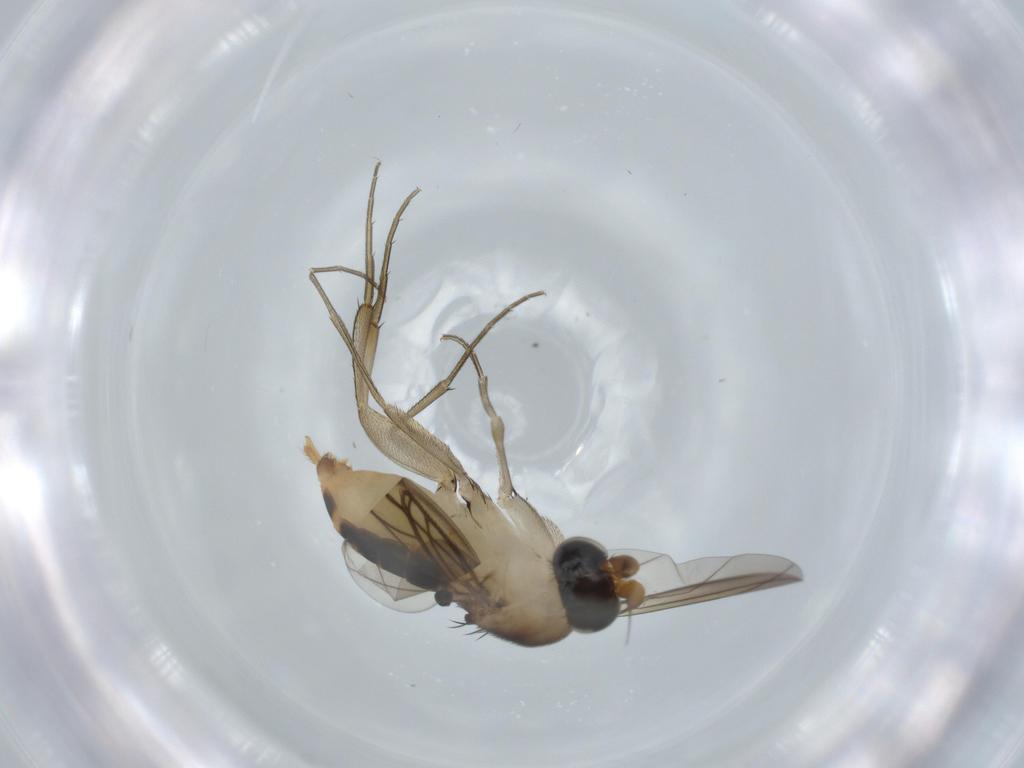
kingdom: Animalia
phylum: Arthropoda
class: Insecta
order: Diptera
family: Phoridae
